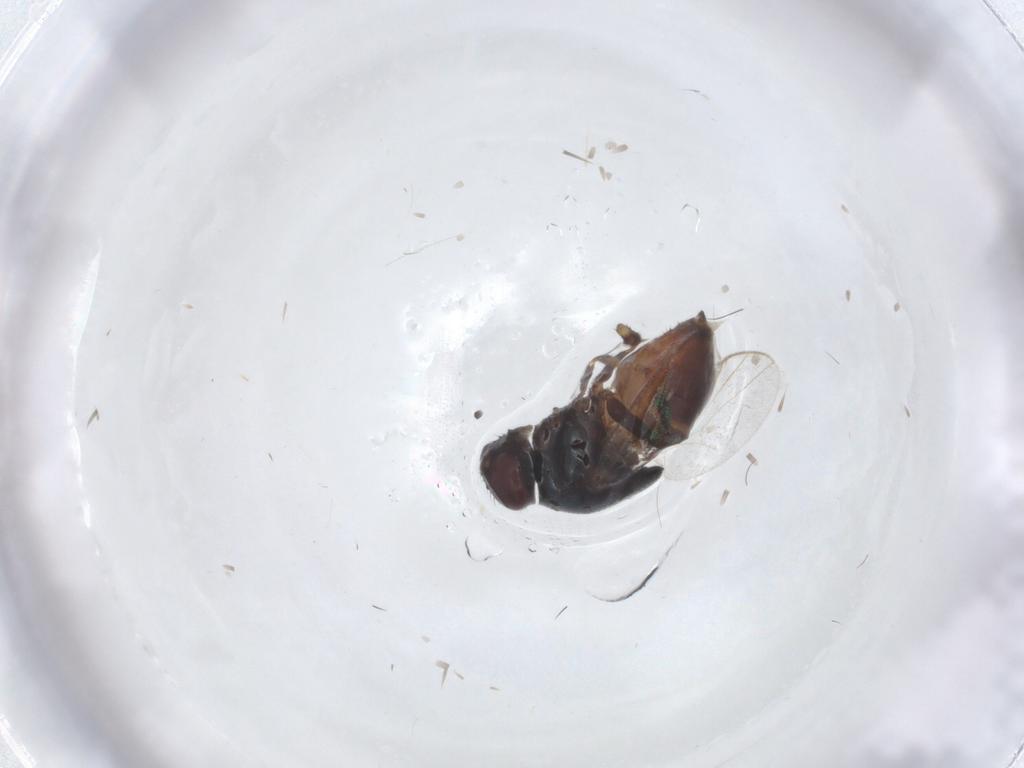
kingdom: Animalia
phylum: Arthropoda
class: Insecta
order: Diptera
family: Chloropidae
